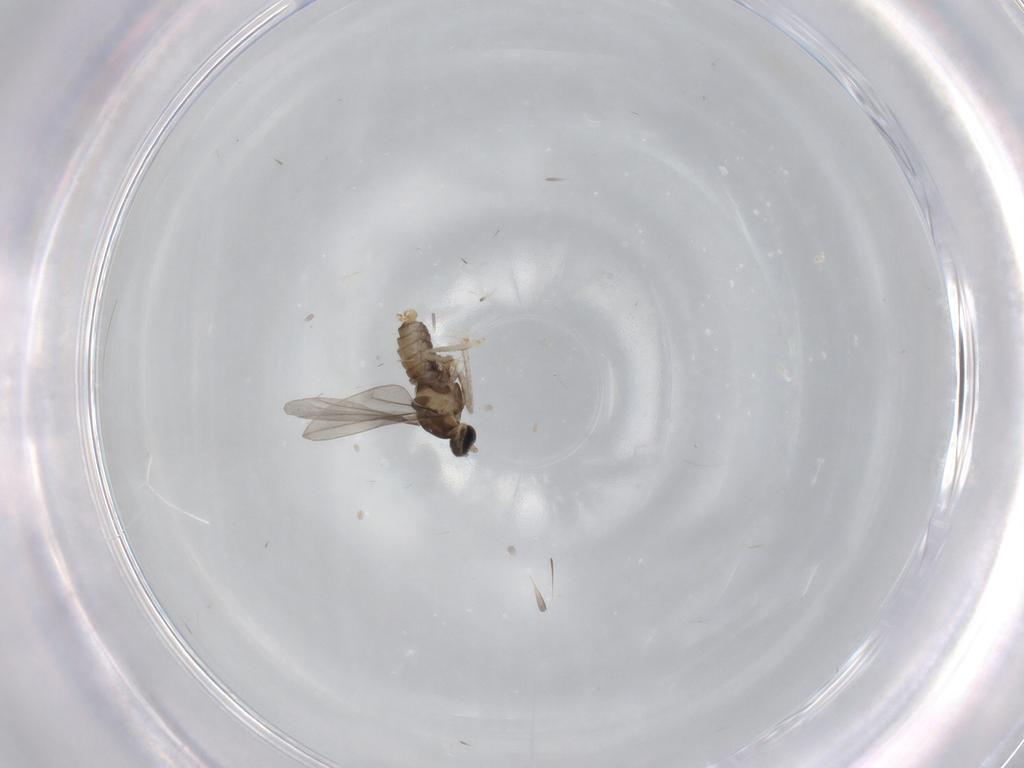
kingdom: Animalia
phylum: Arthropoda
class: Insecta
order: Diptera
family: Cecidomyiidae
